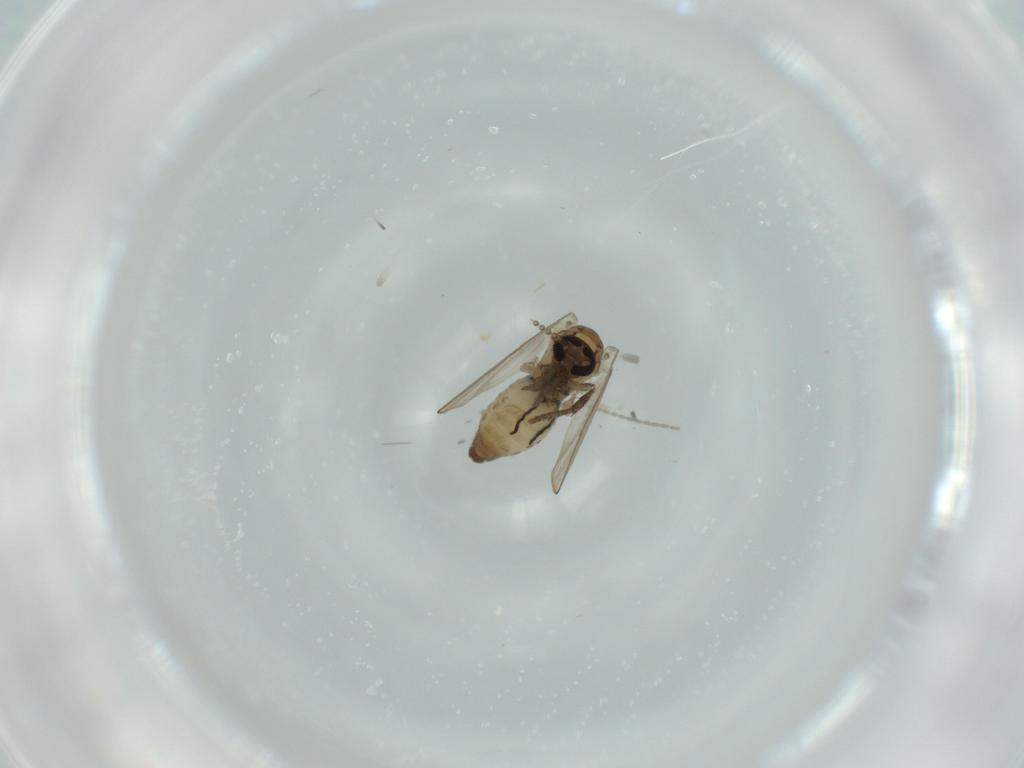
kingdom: Animalia
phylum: Arthropoda
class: Insecta
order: Diptera
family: Psychodidae
